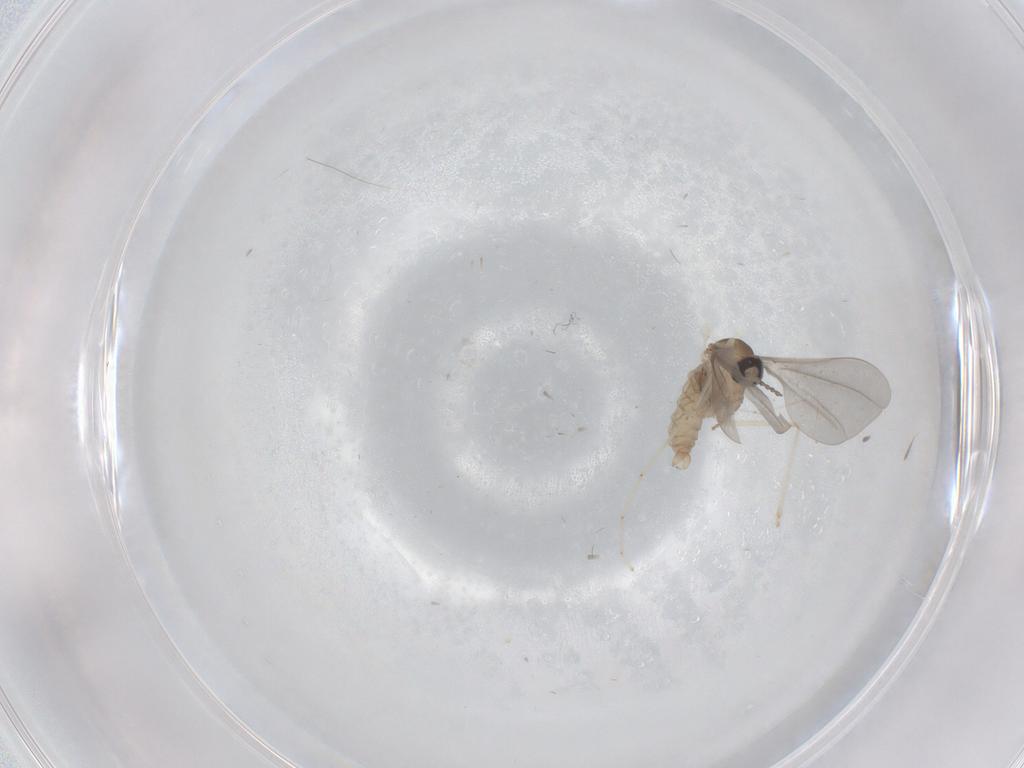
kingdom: Animalia
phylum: Arthropoda
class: Insecta
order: Diptera
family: Cecidomyiidae
